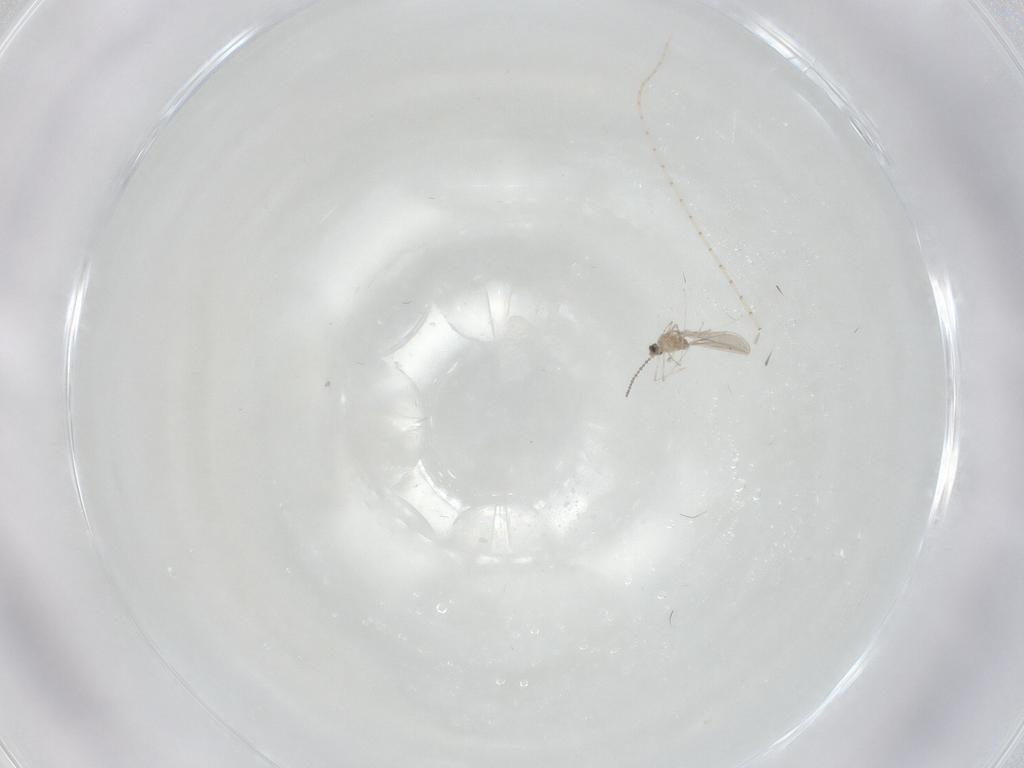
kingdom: Animalia
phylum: Arthropoda
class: Insecta
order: Diptera
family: Cecidomyiidae
